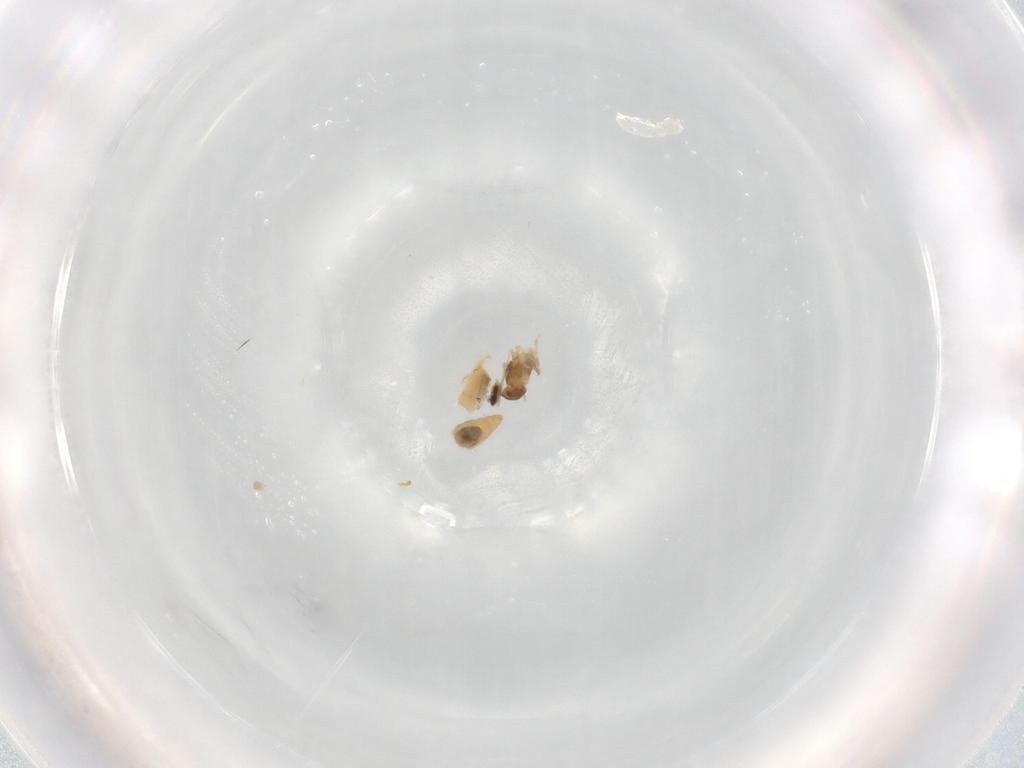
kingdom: Animalia
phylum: Arthropoda
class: Insecta
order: Diptera
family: Glossinidae
